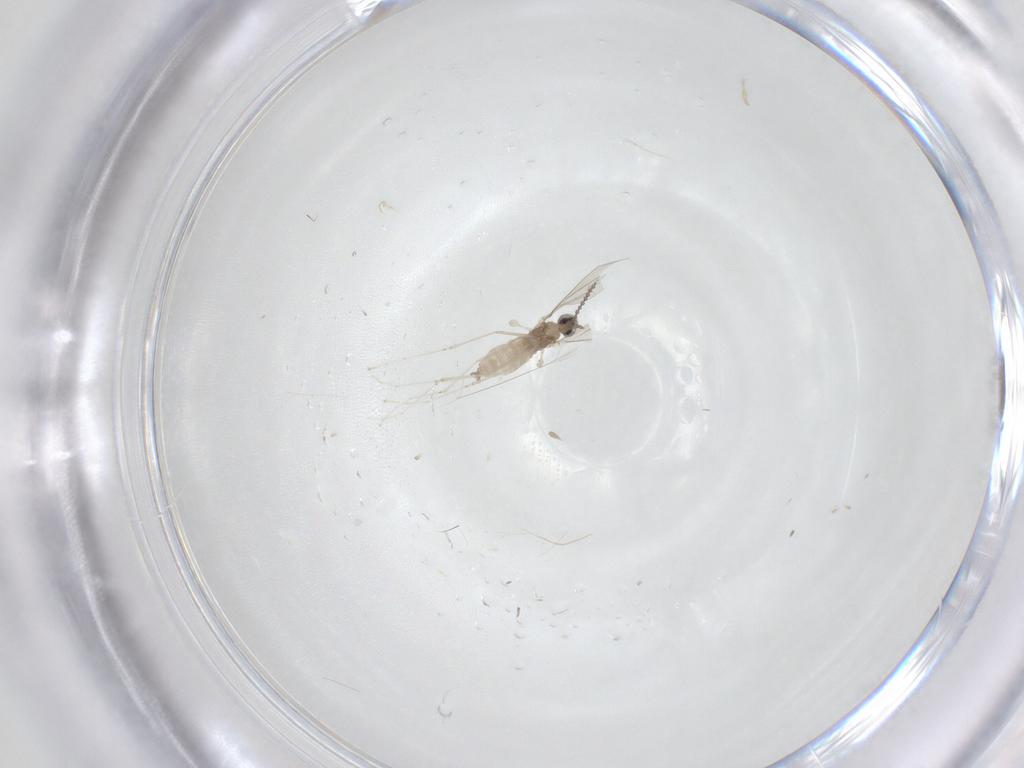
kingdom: Animalia
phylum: Arthropoda
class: Insecta
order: Diptera
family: Cecidomyiidae
